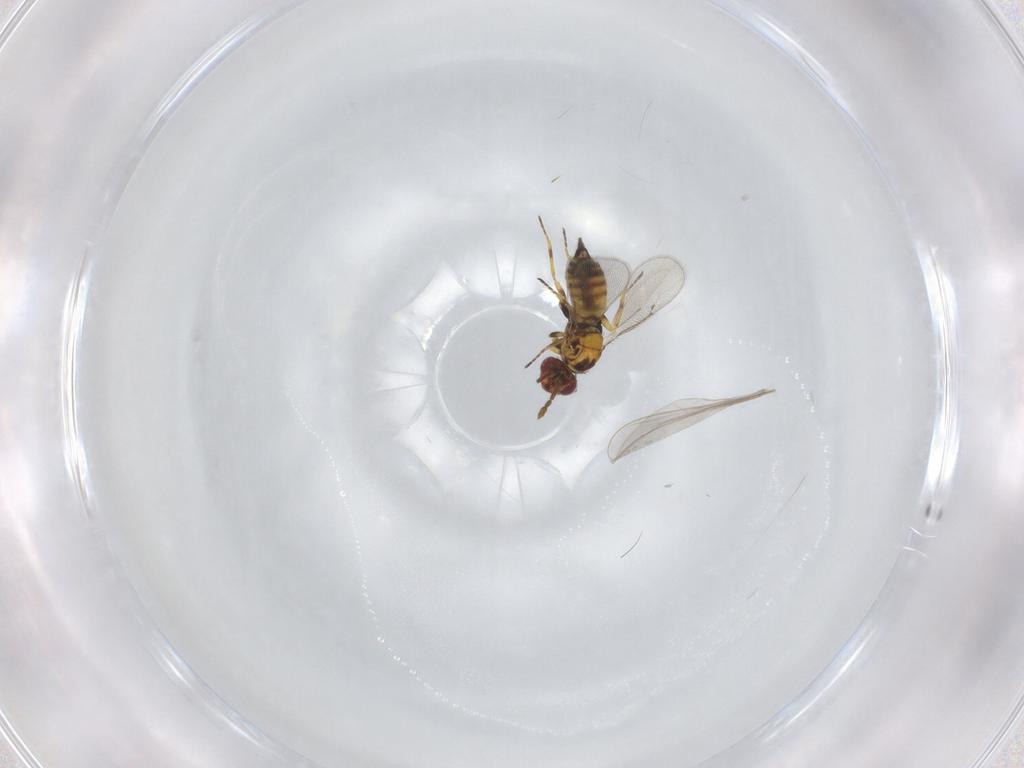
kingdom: Animalia
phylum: Arthropoda
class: Insecta
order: Hymenoptera
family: Eulophidae
